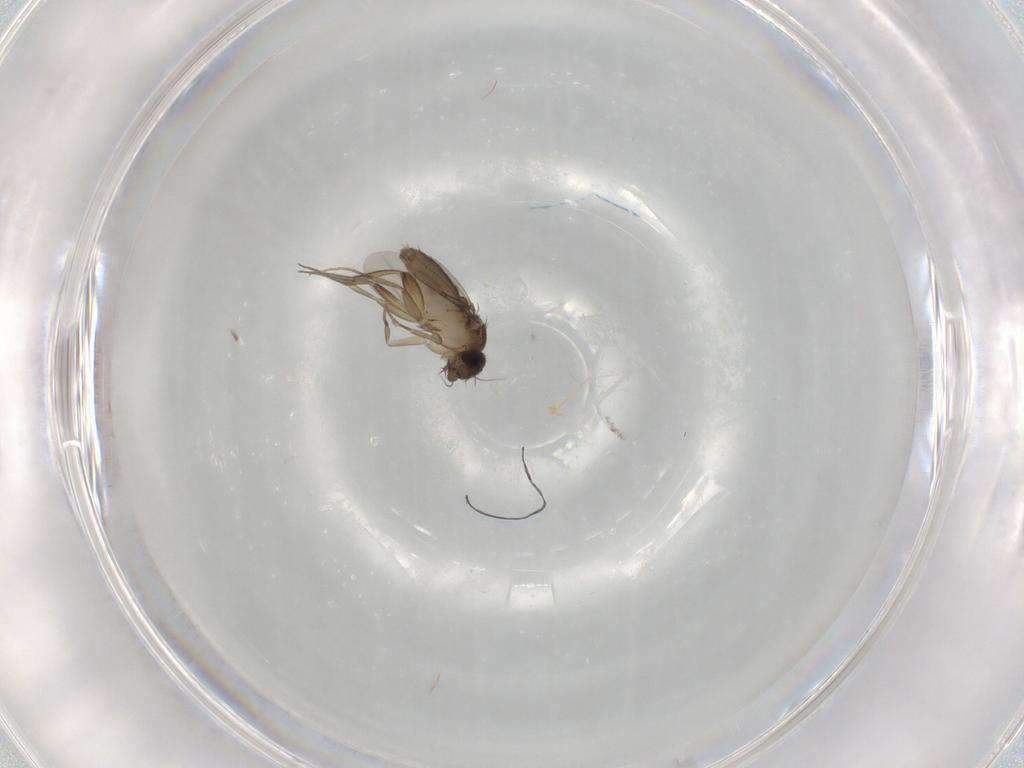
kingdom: Animalia
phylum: Arthropoda
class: Insecta
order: Diptera
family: Phoridae
